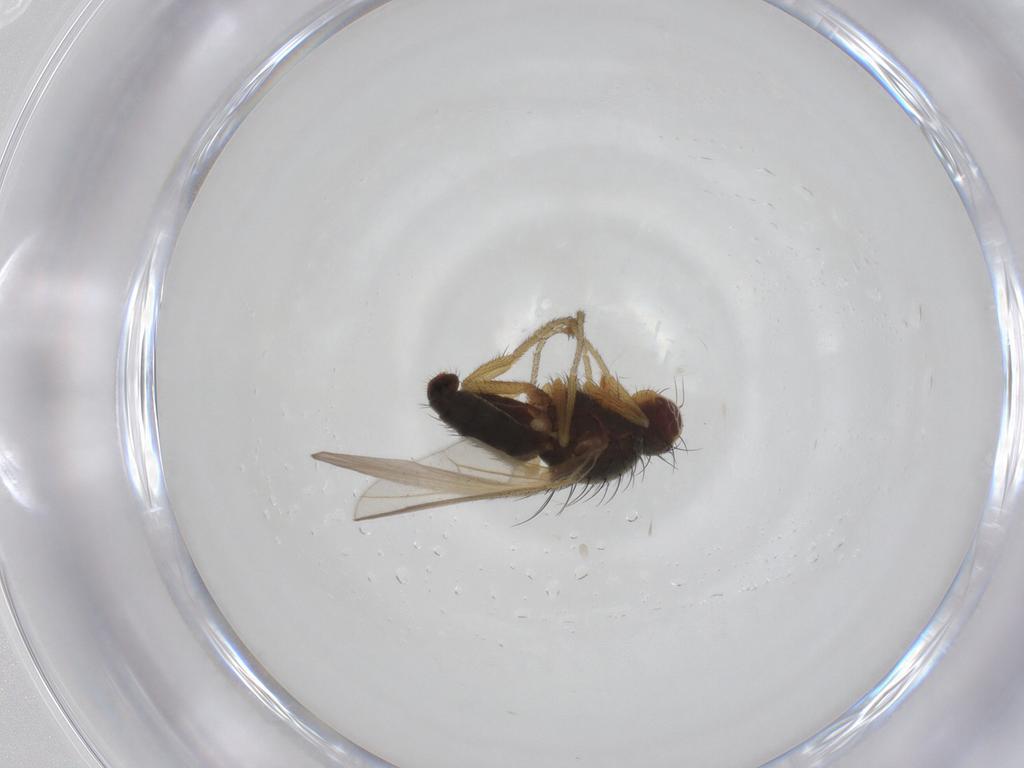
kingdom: Animalia
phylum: Arthropoda
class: Insecta
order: Diptera
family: Heleomyzidae
